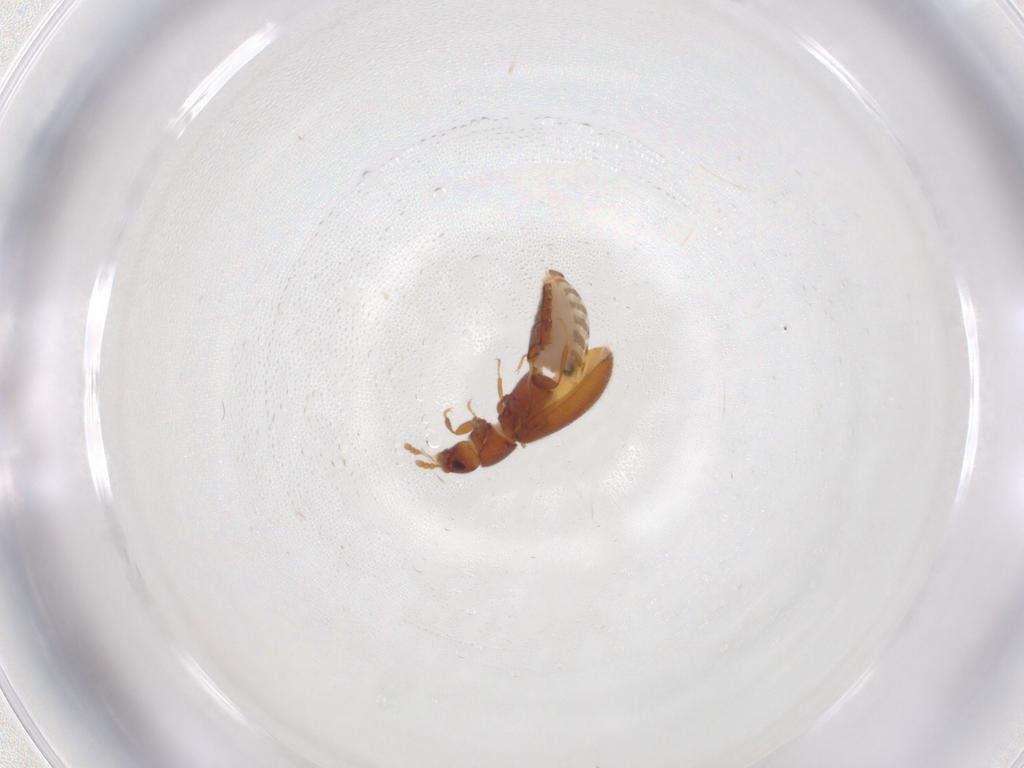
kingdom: Animalia
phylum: Arthropoda
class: Insecta
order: Coleoptera
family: Latridiidae
